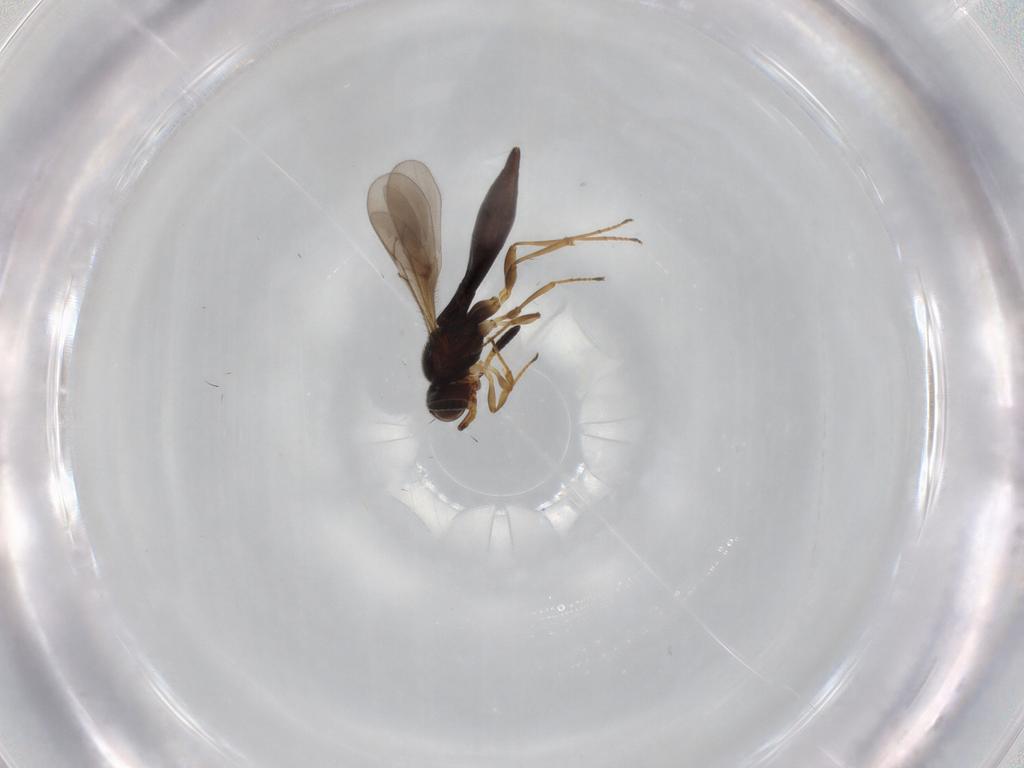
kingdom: Animalia
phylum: Arthropoda
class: Insecta
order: Hymenoptera
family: Scelionidae
